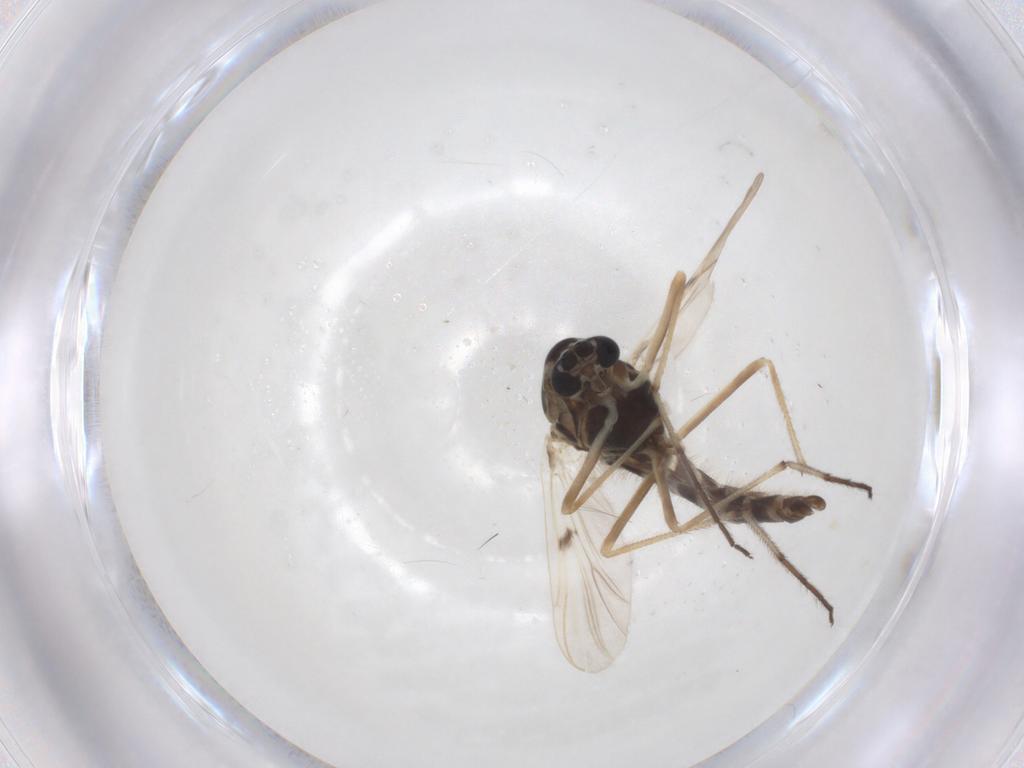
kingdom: Animalia
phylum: Arthropoda
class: Insecta
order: Diptera
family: Chironomidae
